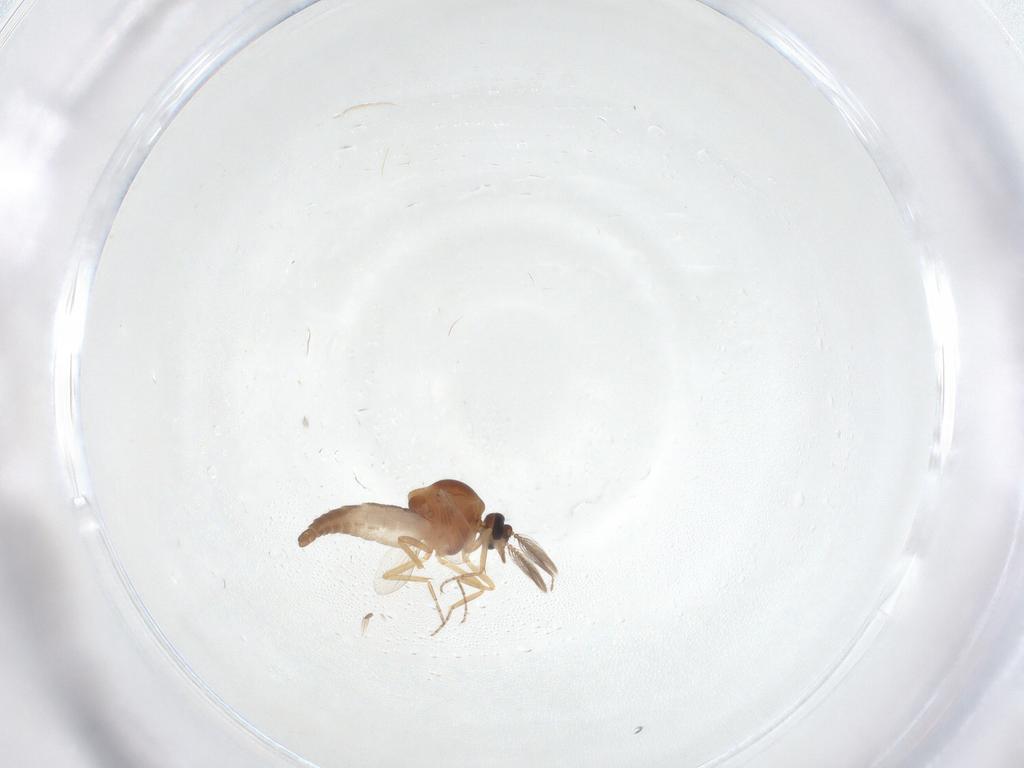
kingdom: Animalia
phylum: Arthropoda
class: Insecta
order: Diptera
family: Ceratopogonidae
